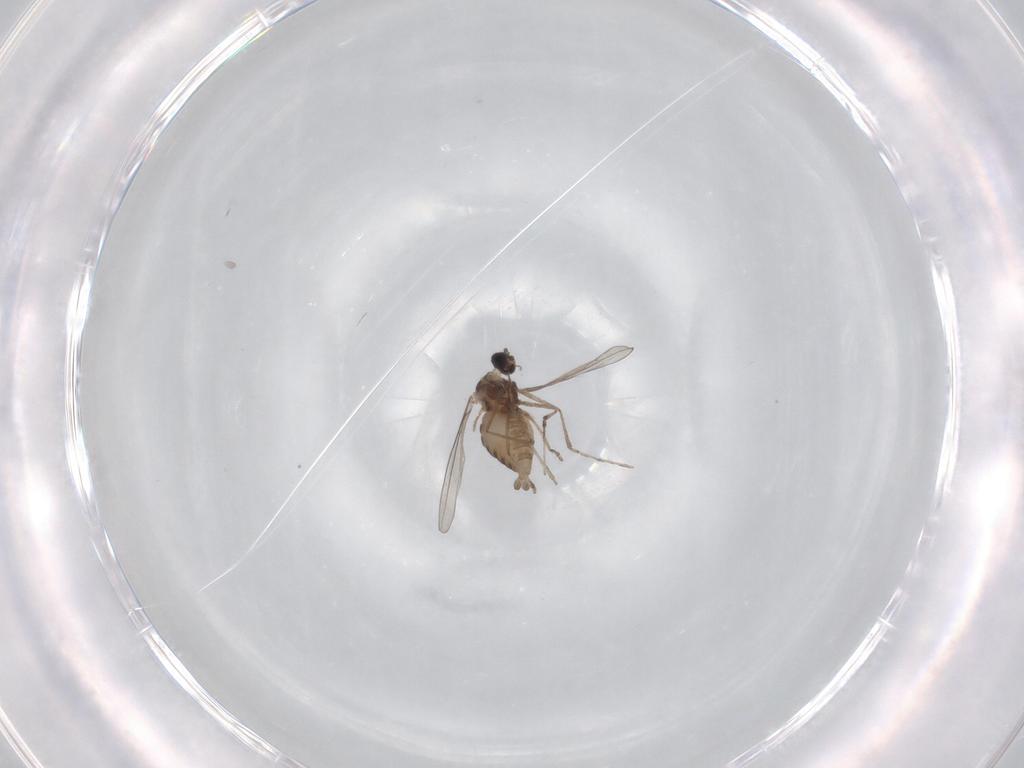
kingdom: Animalia
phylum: Arthropoda
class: Insecta
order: Diptera
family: Cecidomyiidae
